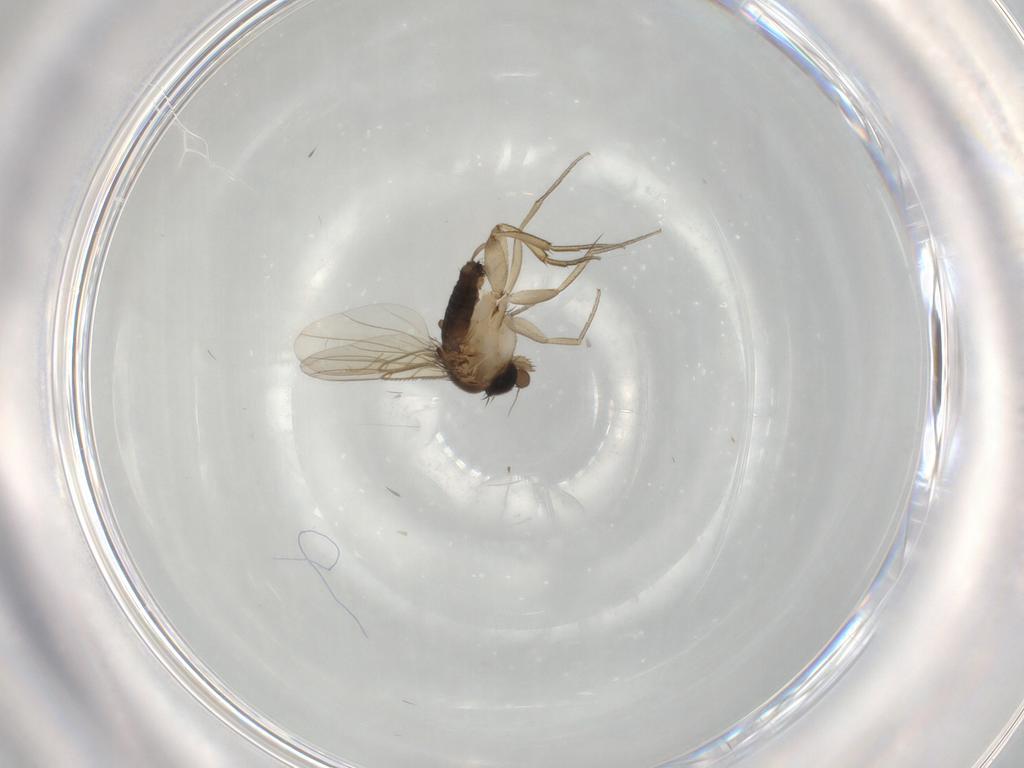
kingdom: Animalia
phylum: Arthropoda
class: Insecta
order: Diptera
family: Phoridae
